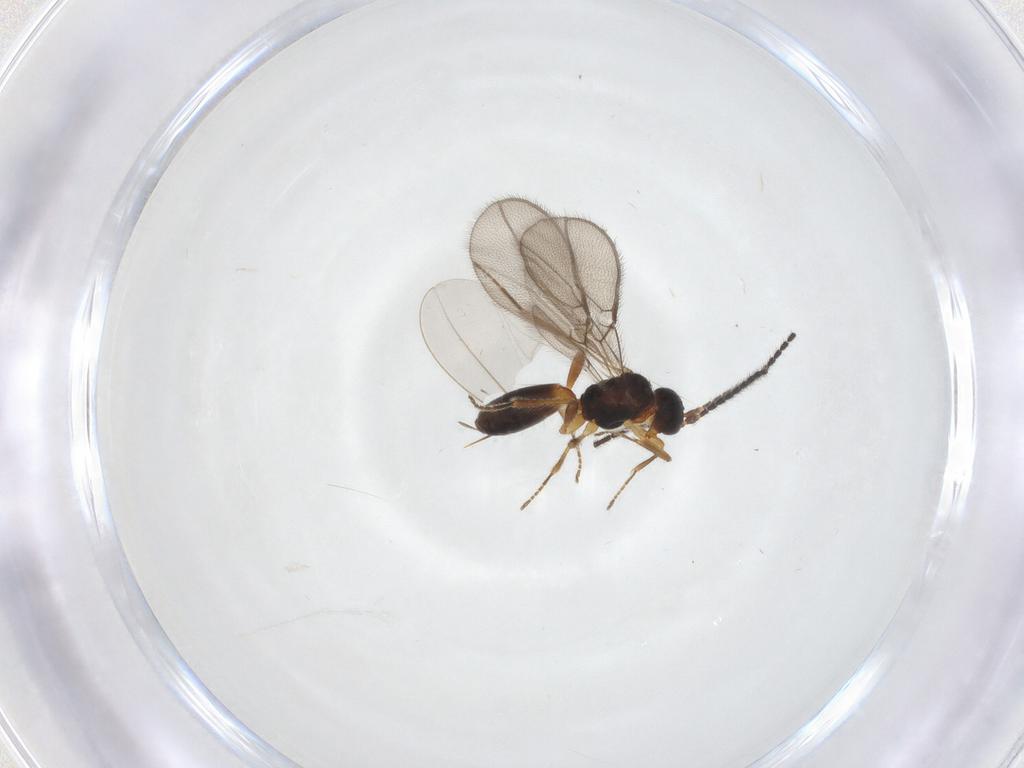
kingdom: Animalia
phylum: Arthropoda
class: Insecta
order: Hymenoptera
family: Braconidae
